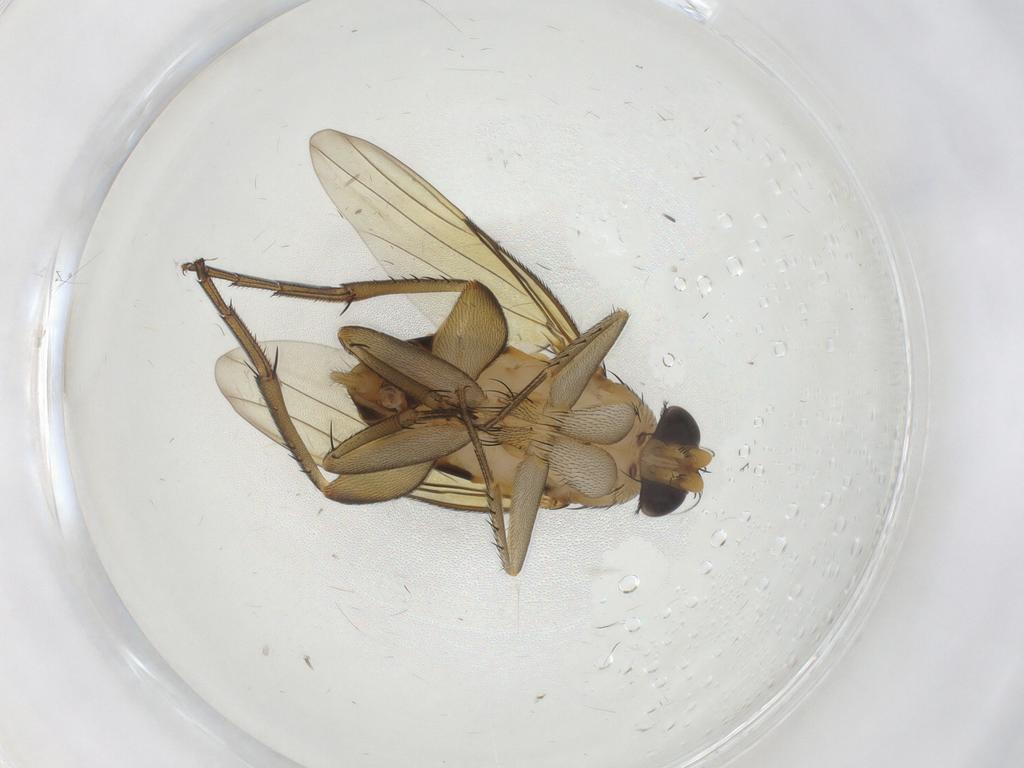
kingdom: Animalia
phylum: Arthropoda
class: Insecta
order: Diptera
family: Phoridae
